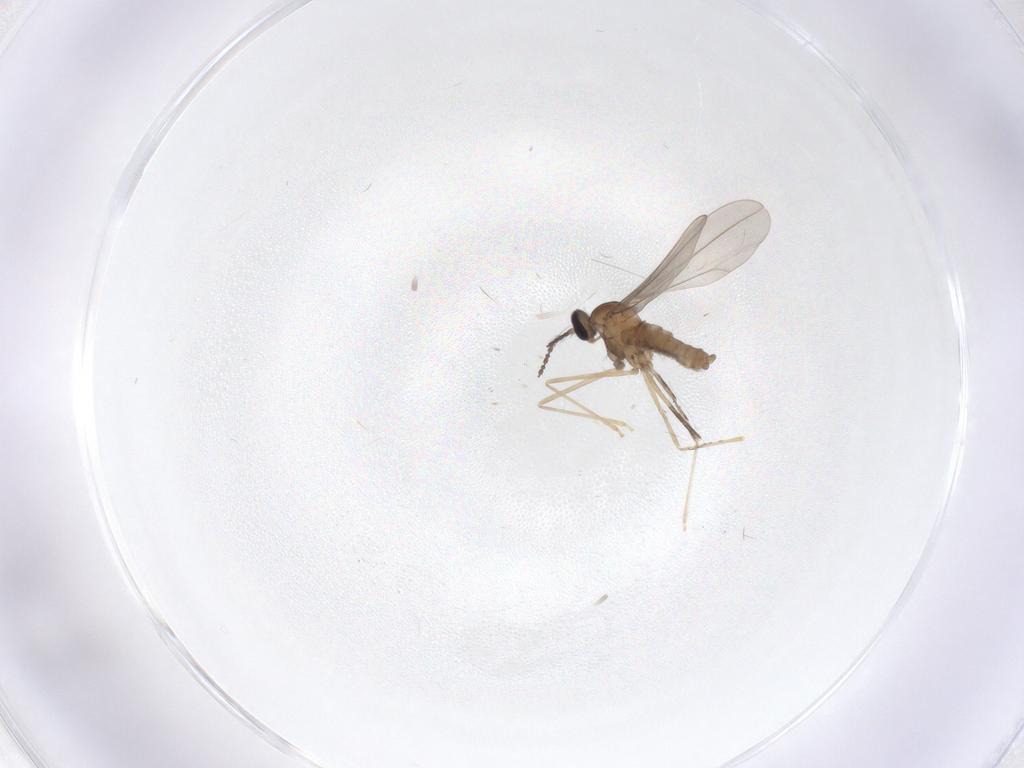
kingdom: Animalia
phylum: Arthropoda
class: Insecta
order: Diptera
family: Cecidomyiidae
